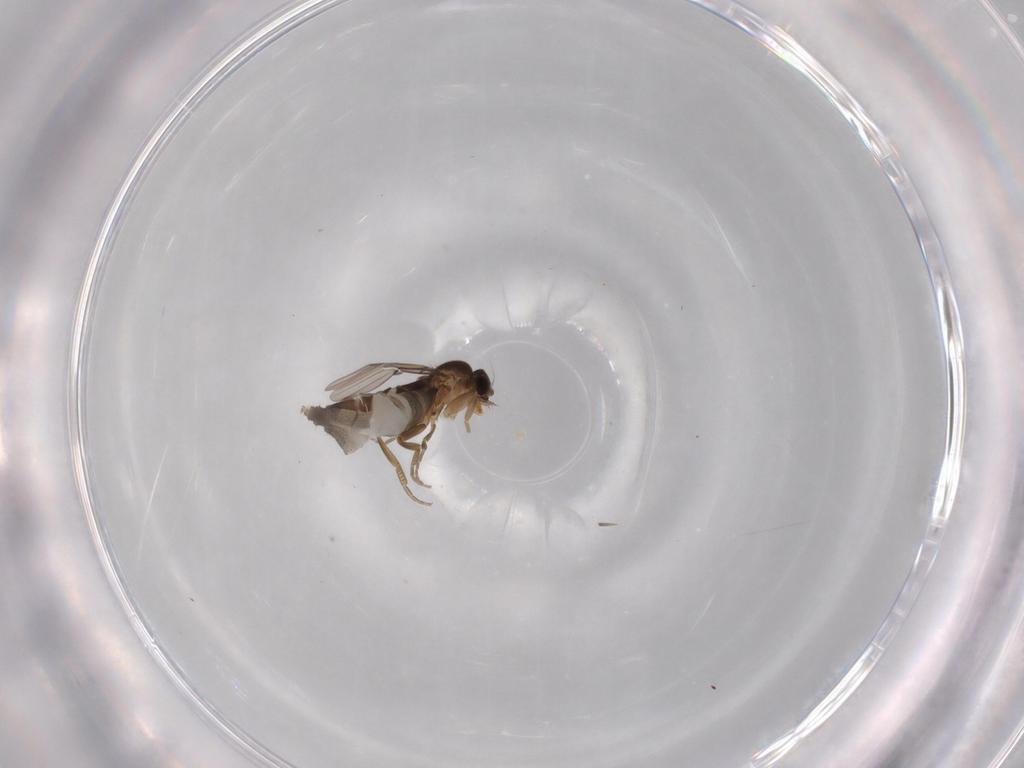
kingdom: Animalia
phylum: Arthropoda
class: Insecta
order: Diptera
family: Phoridae
